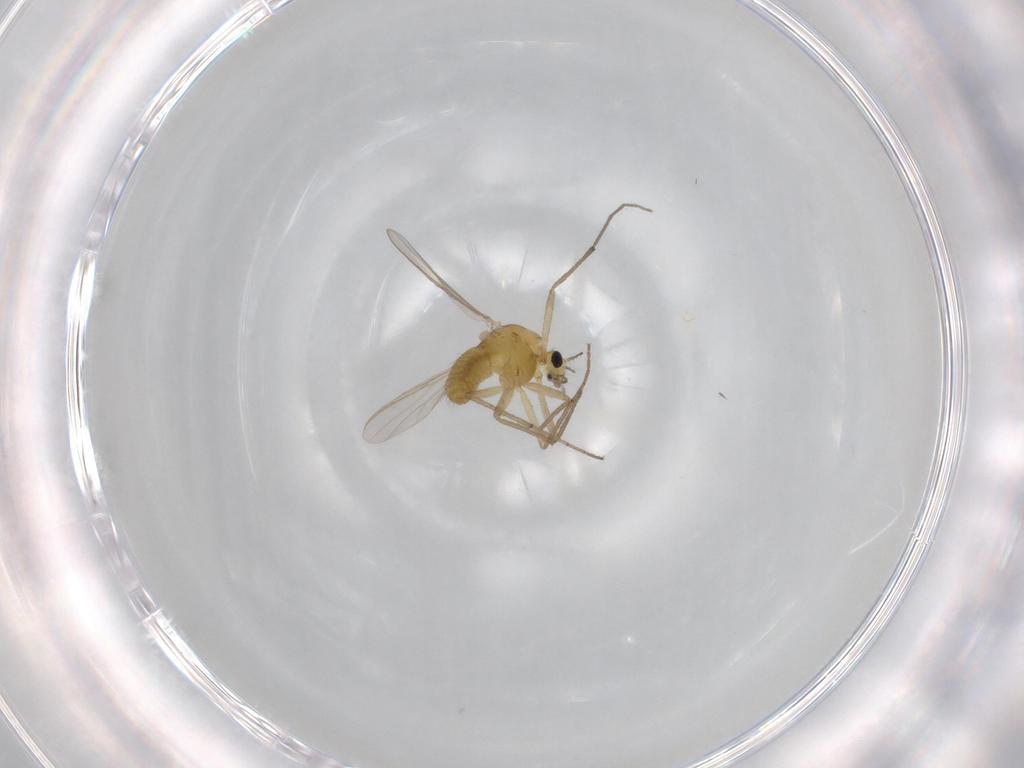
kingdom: Animalia
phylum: Arthropoda
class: Insecta
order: Diptera
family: Chironomidae
